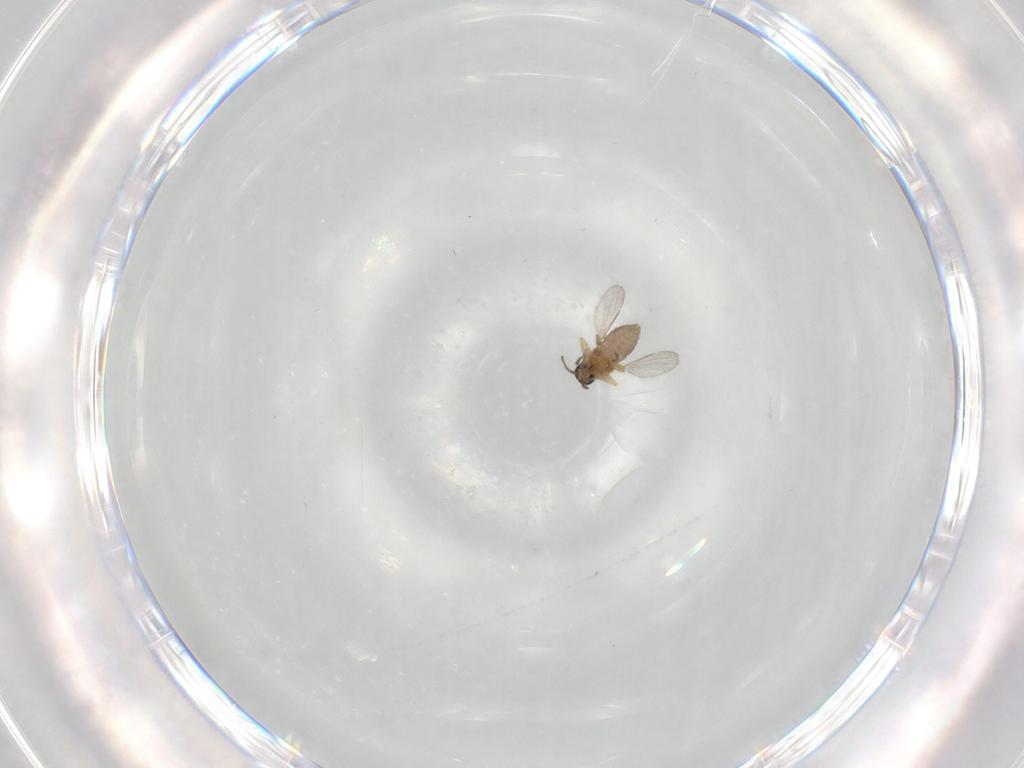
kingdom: Animalia
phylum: Arthropoda
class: Insecta
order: Diptera
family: Ceratopogonidae
